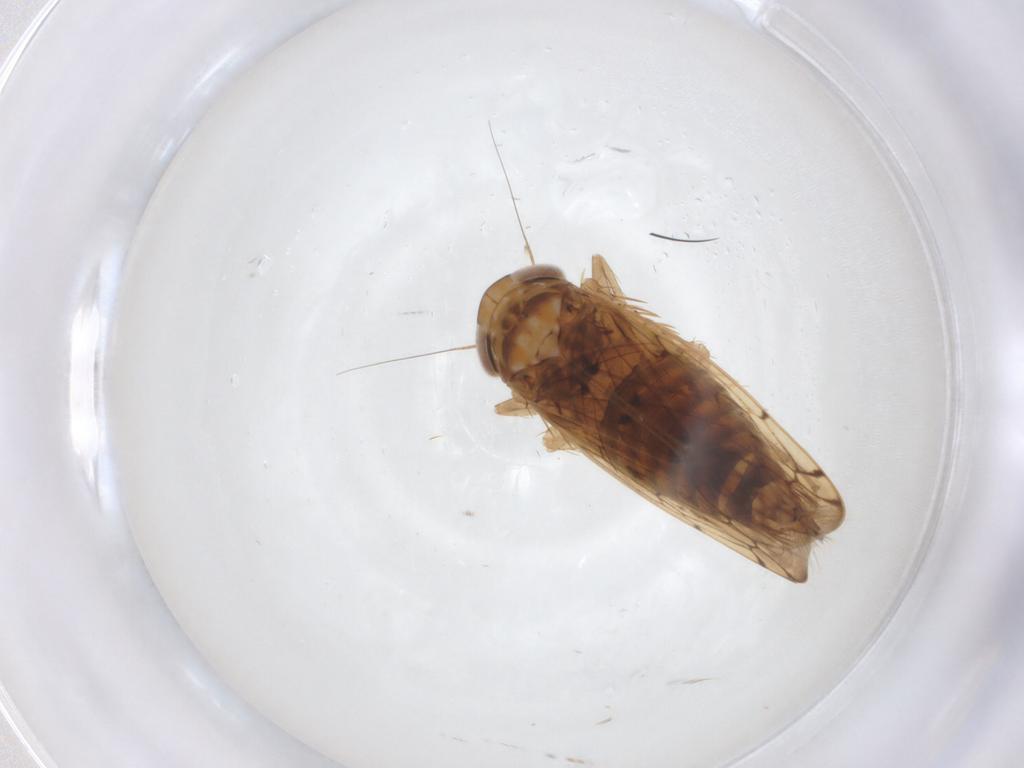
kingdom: Animalia
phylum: Arthropoda
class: Insecta
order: Hemiptera
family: Cicadellidae
